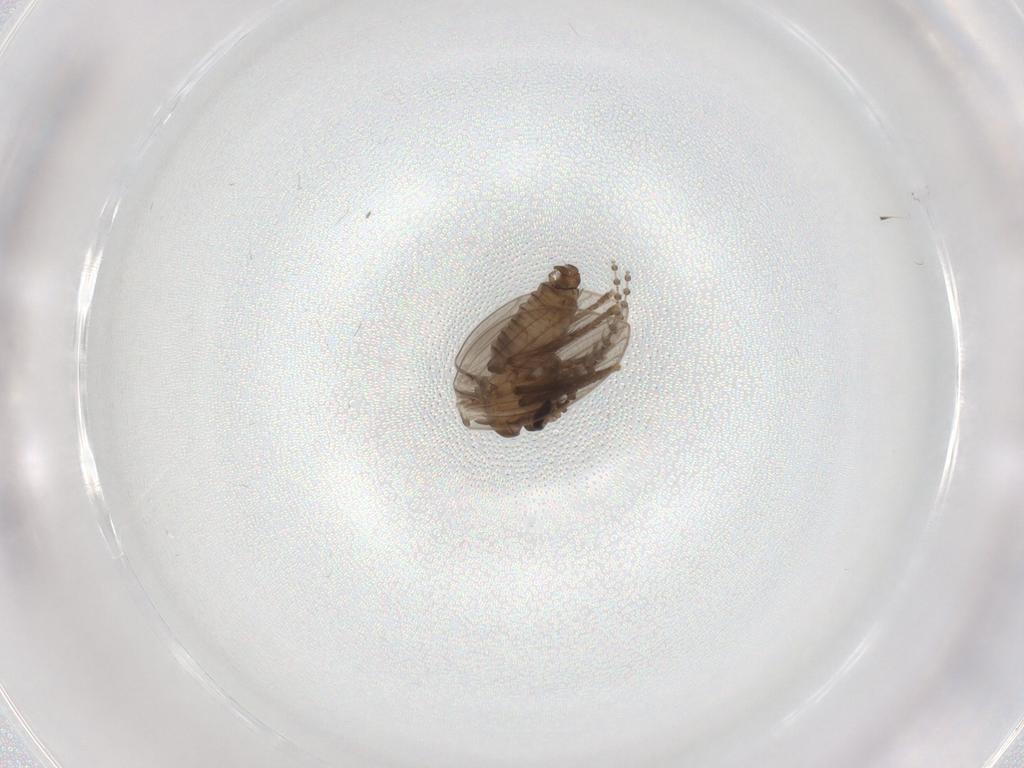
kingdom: Animalia
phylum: Arthropoda
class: Insecta
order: Diptera
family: Psychodidae
